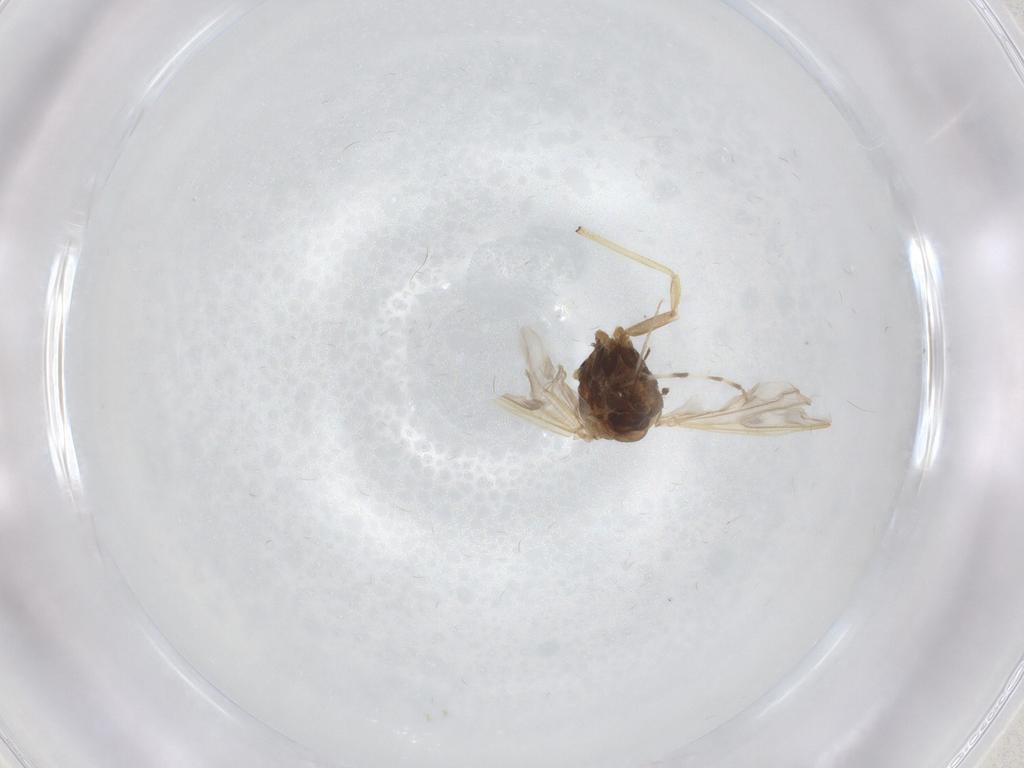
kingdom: Animalia
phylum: Arthropoda
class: Insecta
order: Diptera
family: Chironomidae
